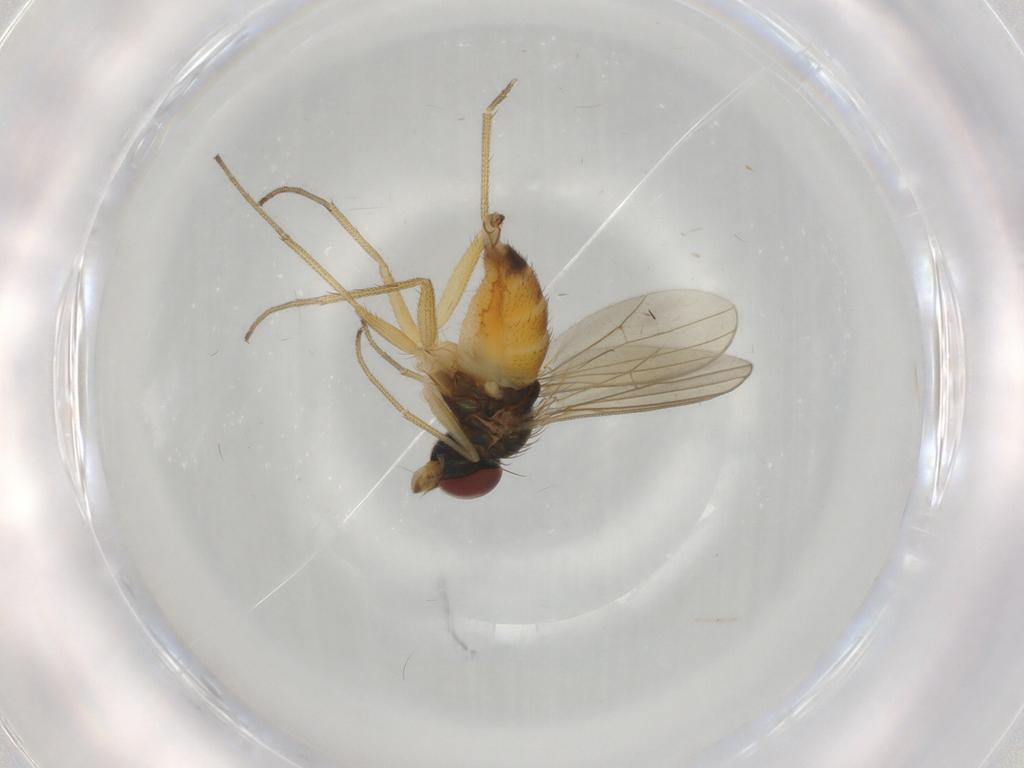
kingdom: Animalia
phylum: Arthropoda
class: Insecta
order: Diptera
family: Dolichopodidae
